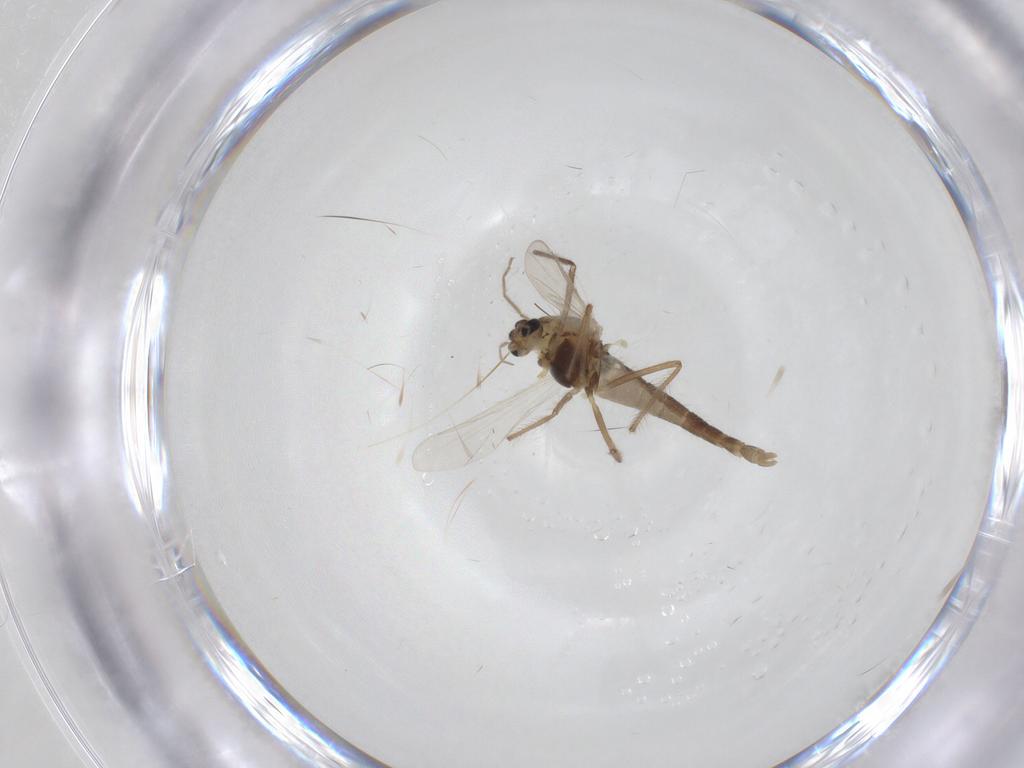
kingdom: Animalia
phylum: Arthropoda
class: Insecta
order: Diptera
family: Chironomidae
